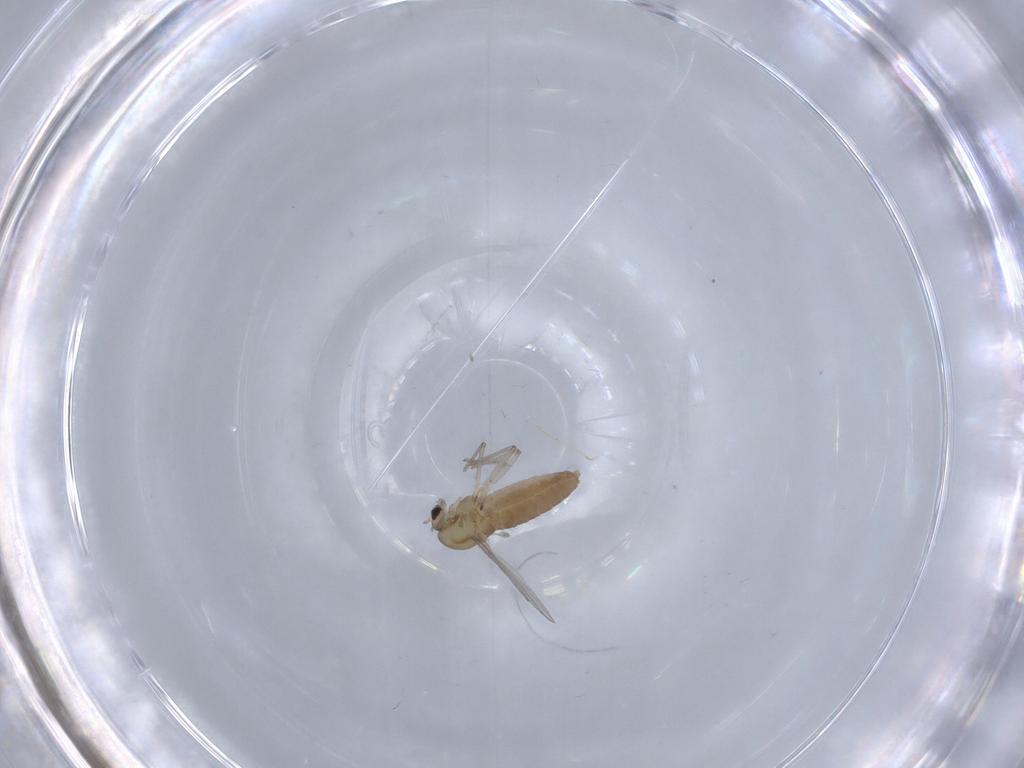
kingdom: Animalia
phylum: Arthropoda
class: Insecta
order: Diptera
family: Chironomidae
